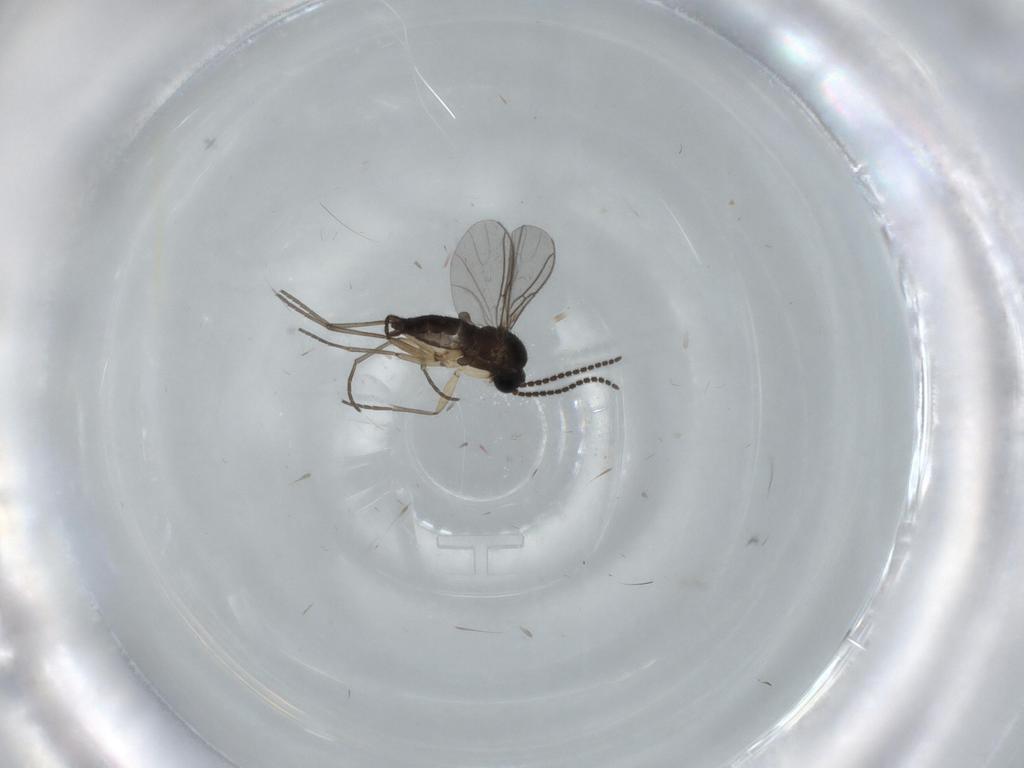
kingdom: Animalia
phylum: Arthropoda
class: Insecta
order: Diptera
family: Sciaridae
